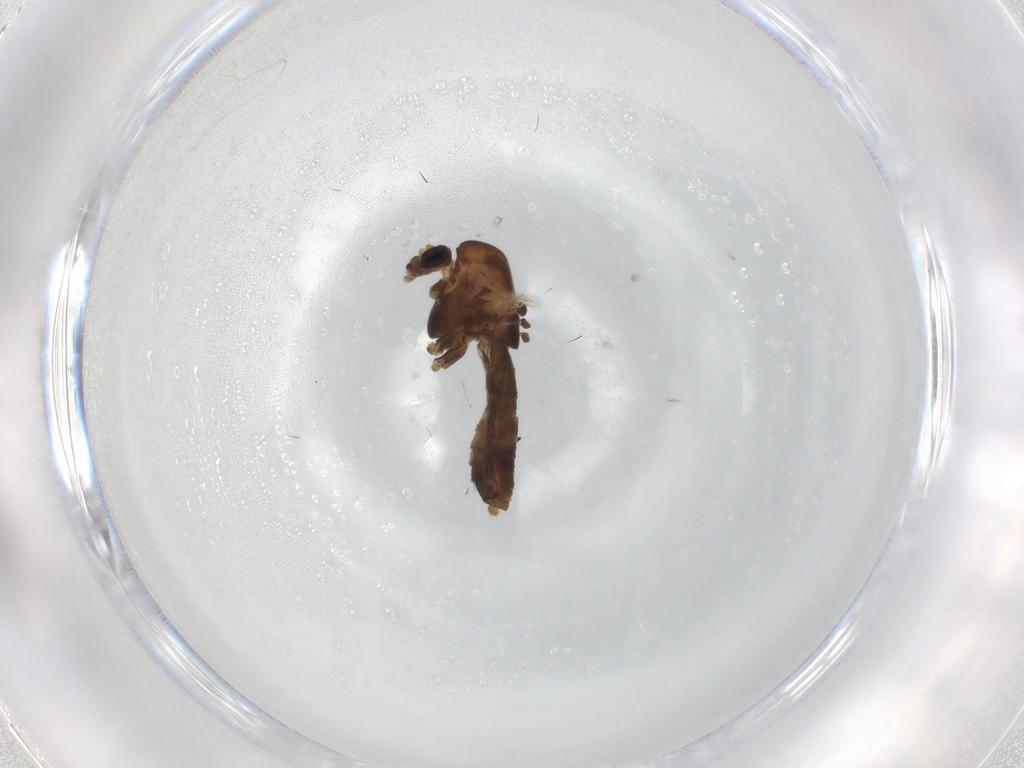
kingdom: Animalia
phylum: Arthropoda
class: Insecta
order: Diptera
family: Chironomidae
